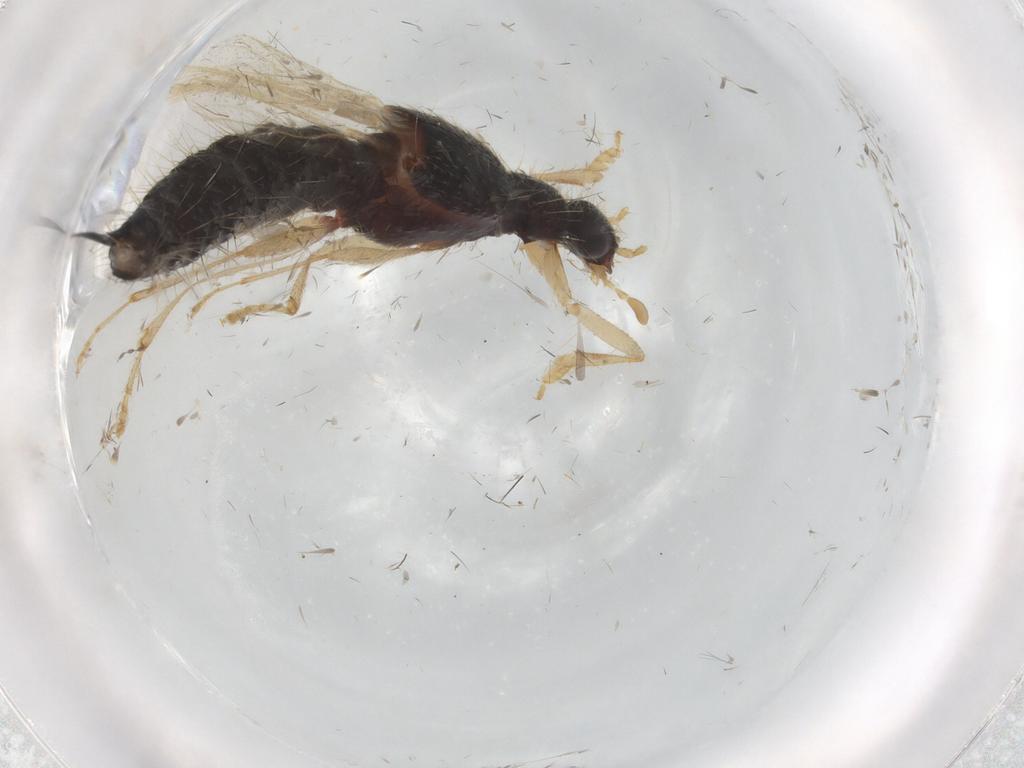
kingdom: Animalia
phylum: Arthropoda
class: Insecta
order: Coleoptera
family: Staphylinidae
